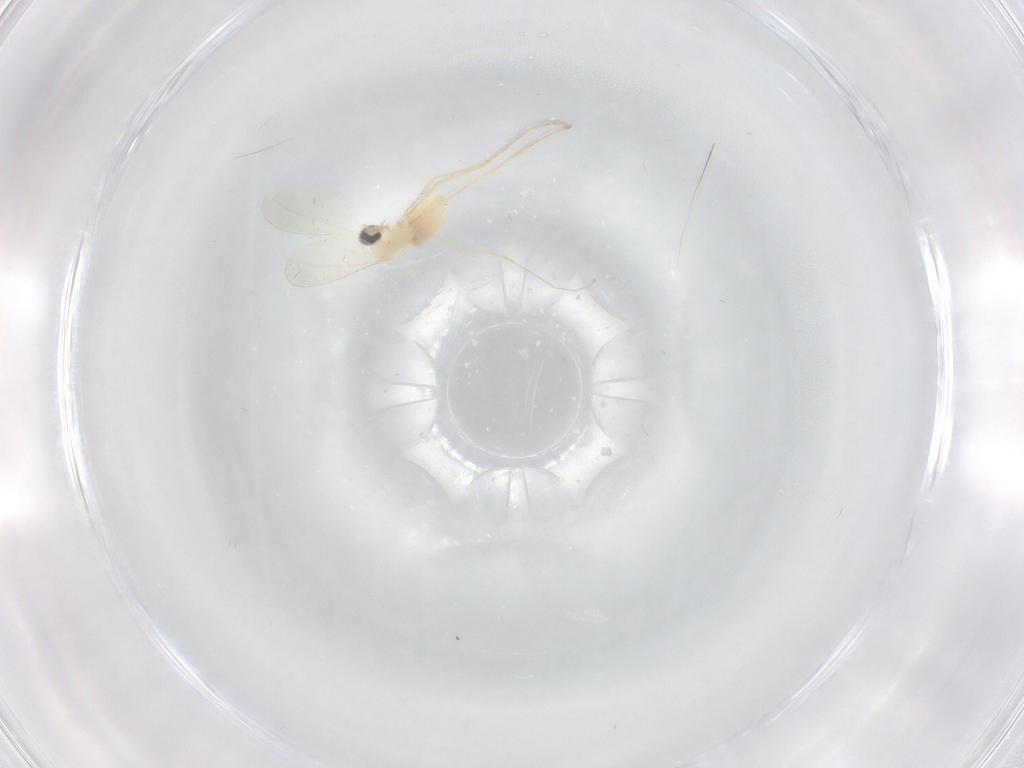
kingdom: Animalia
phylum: Arthropoda
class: Insecta
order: Diptera
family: Cecidomyiidae
